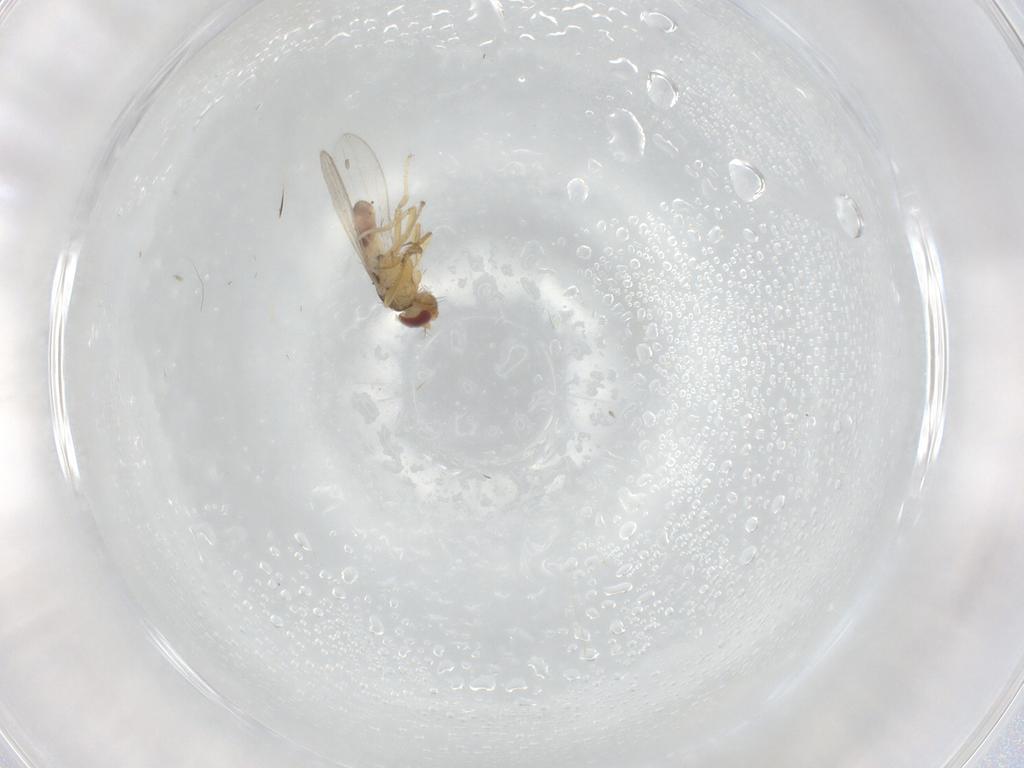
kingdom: Animalia
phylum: Arthropoda
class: Insecta
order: Diptera
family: Periscelididae
